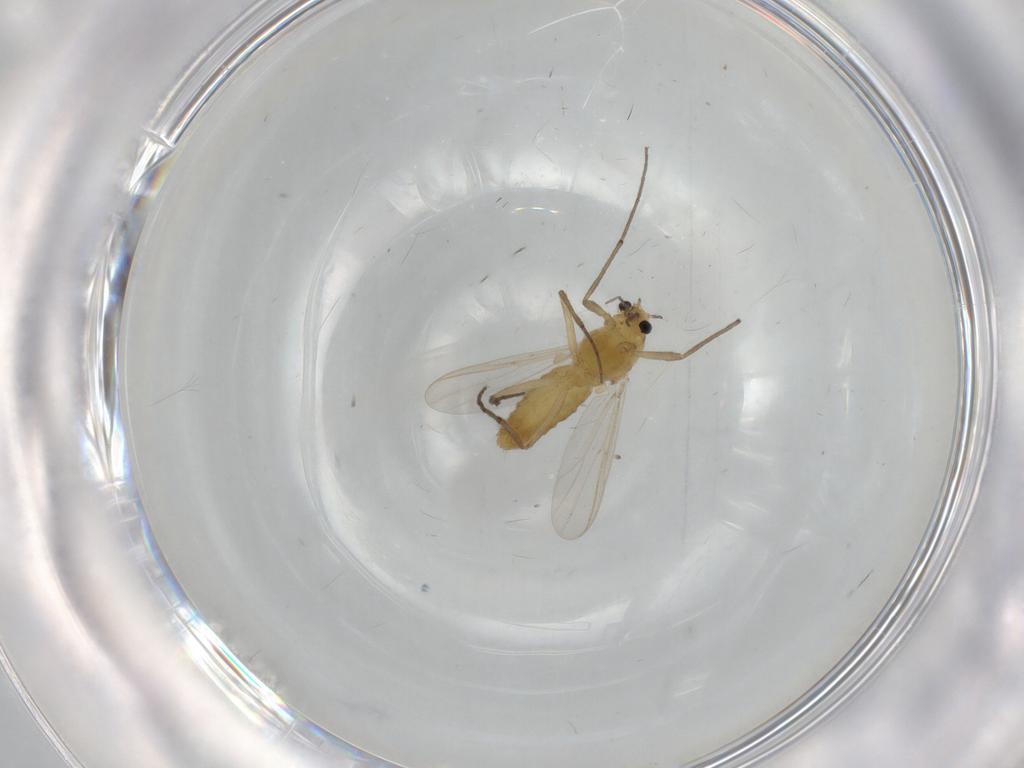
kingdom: Animalia
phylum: Arthropoda
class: Insecta
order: Diptera
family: Chironomidae
